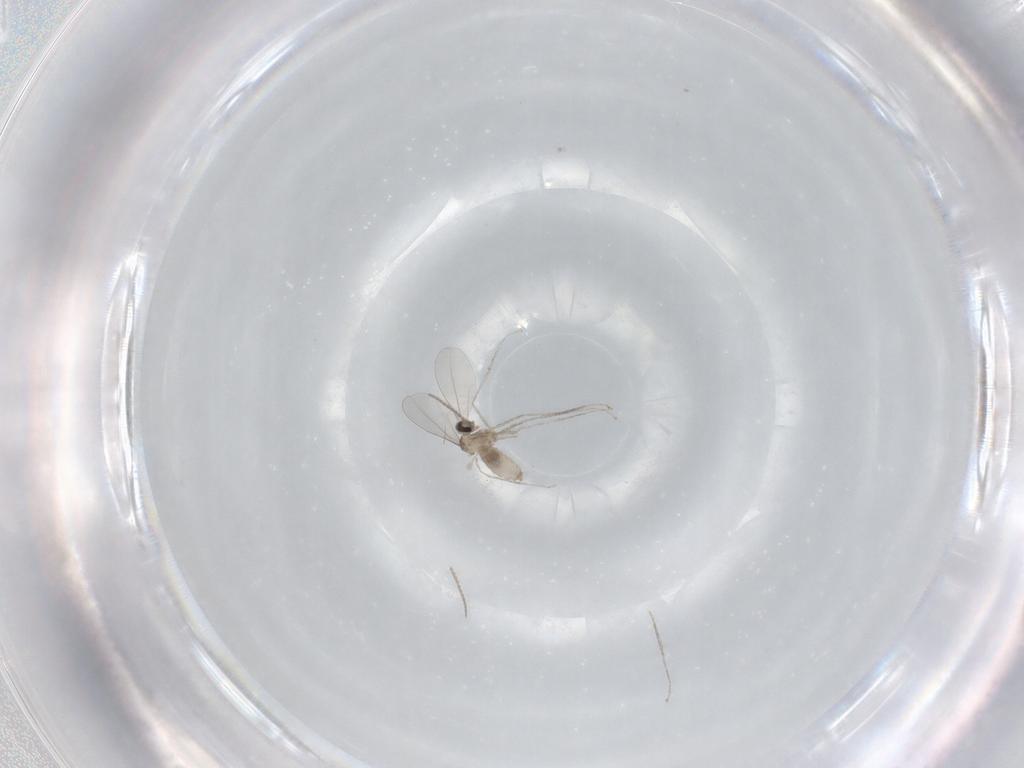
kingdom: Animalia
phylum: Arthropoda
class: Insecta
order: Diptera
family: Cecidomyiidae
